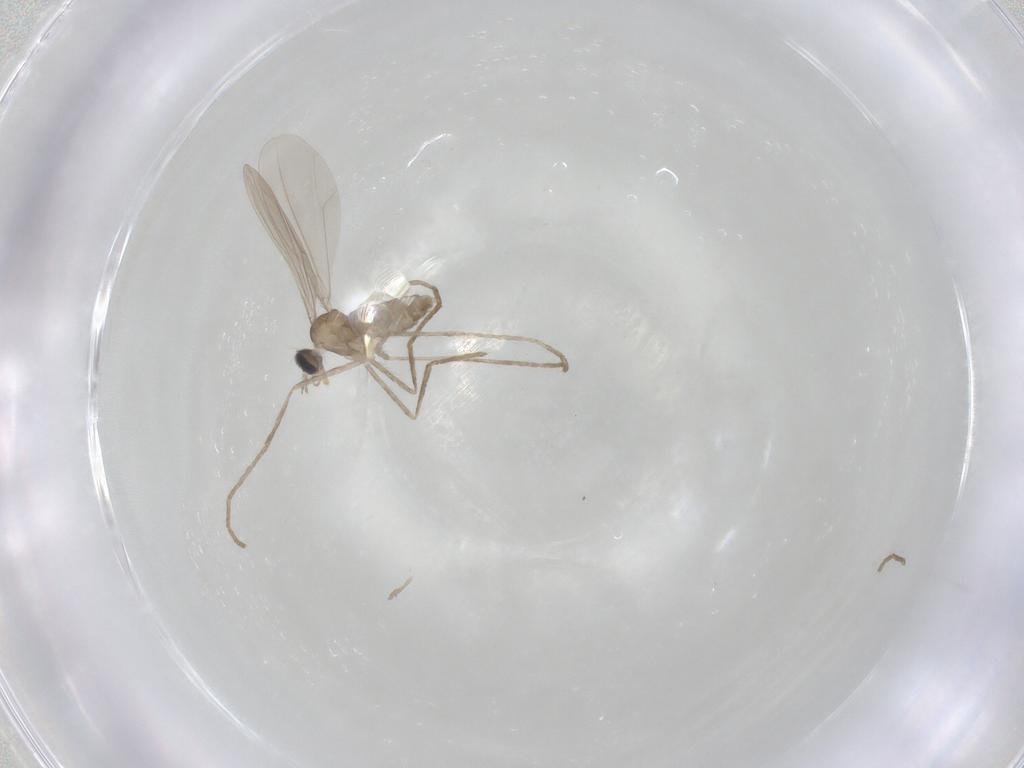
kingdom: Animalia
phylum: Arthropoda
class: Insecta
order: Diptera
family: Cecidomyiidae
